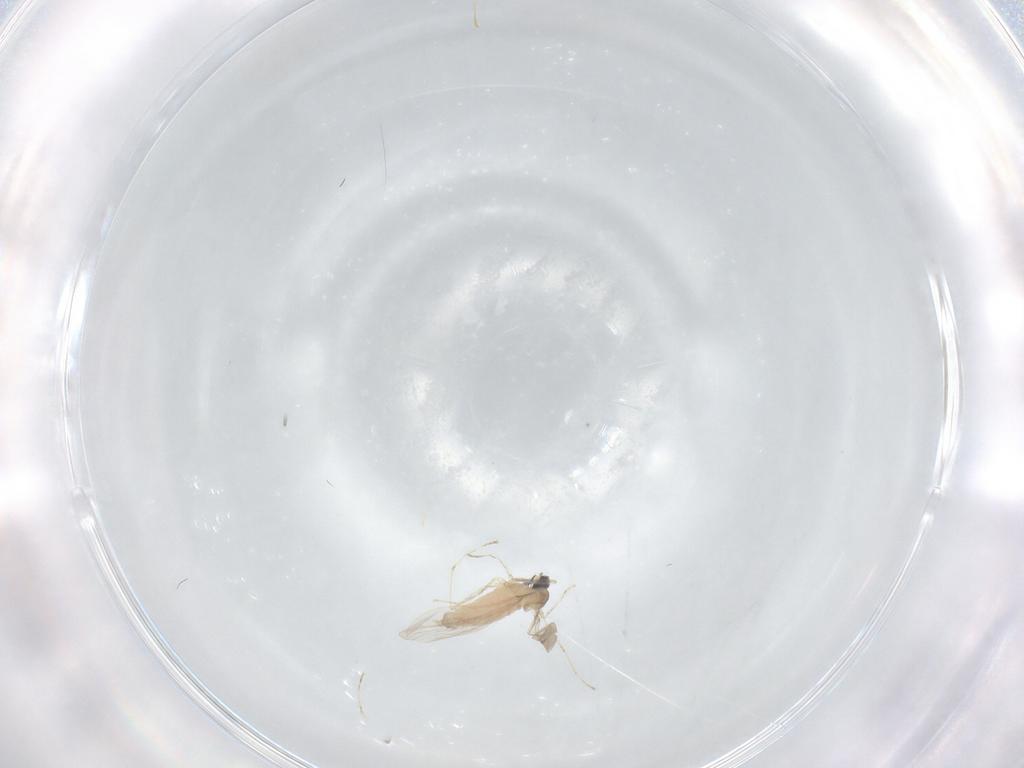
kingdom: Animalia
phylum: Arthropoda
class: Insecta
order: Diptera
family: Cecidomyiidae
